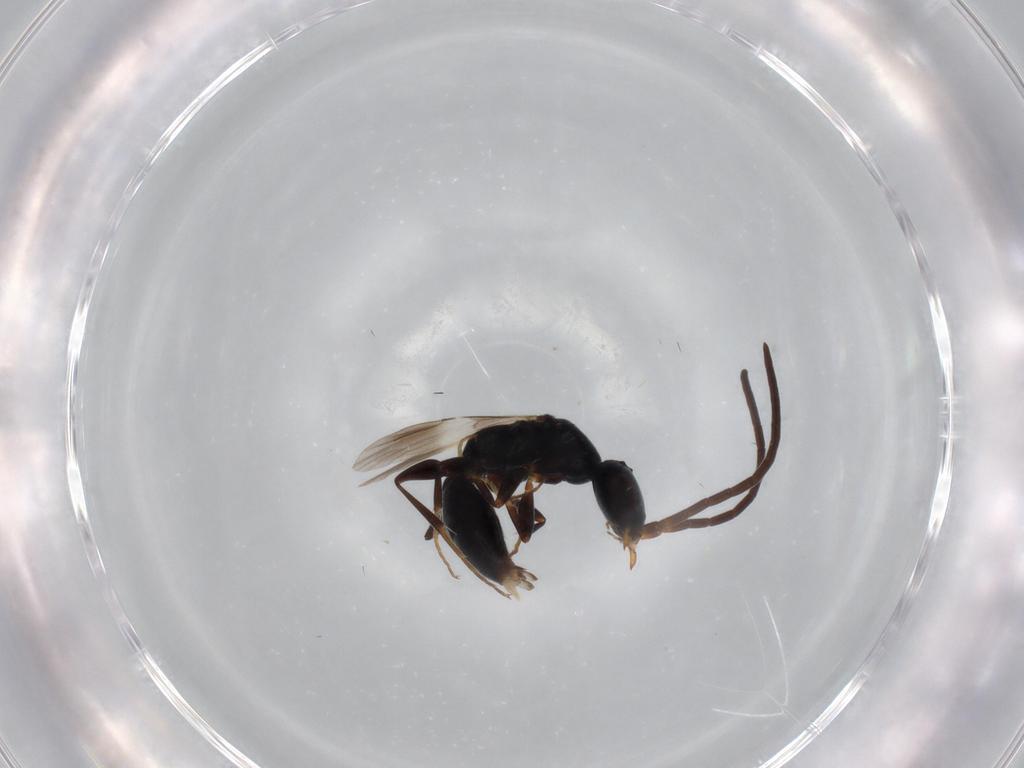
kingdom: Animalia
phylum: Arthropoda
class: Insecta
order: Hymenoptera
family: Bethylidae
